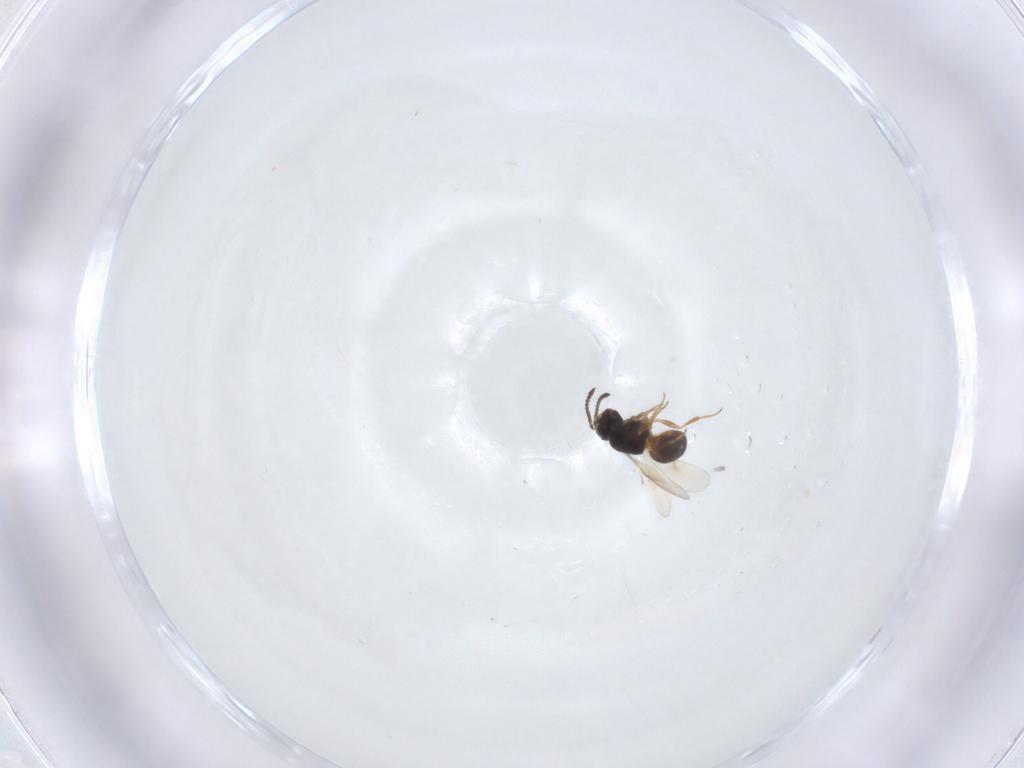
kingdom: Animalia
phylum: Arthropoda
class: Insecta
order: Hymenoptera
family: Scelionidae
